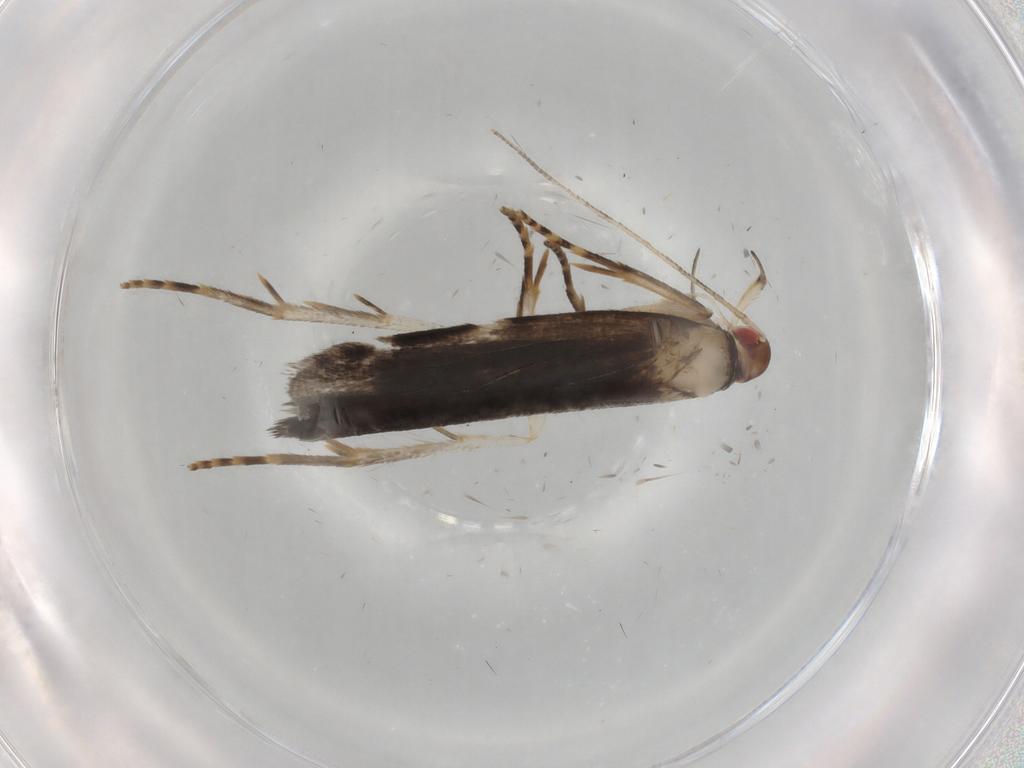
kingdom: Animalia
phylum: Arthropoda
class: Insecta
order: Lepidoptera
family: Gelechiidae
